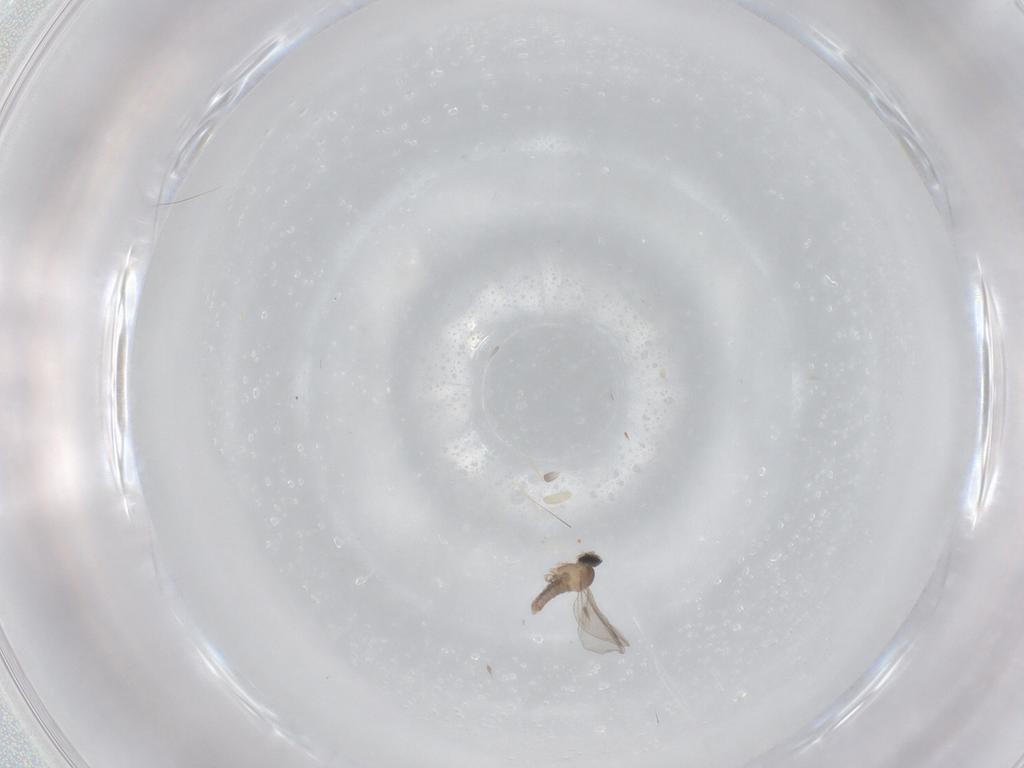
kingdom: Animalia
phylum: Arthropoda
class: Insecta
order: Diptera
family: Cecidomyiidae
